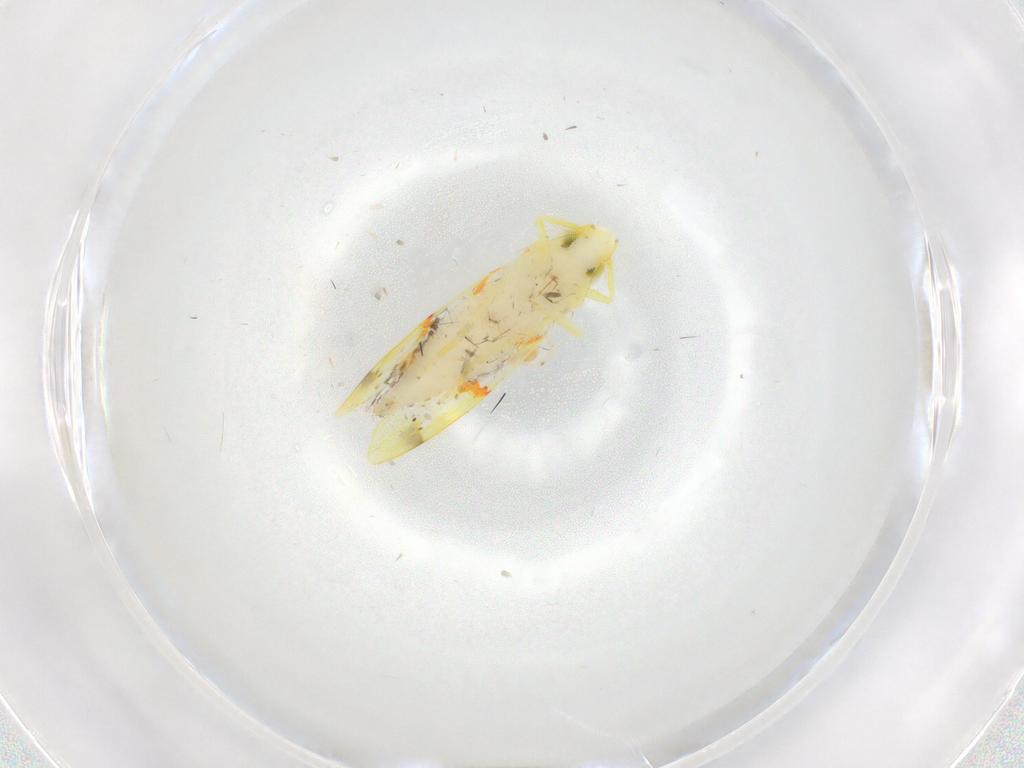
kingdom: Animalia
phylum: Arthropoda
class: Insecta
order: Hemiptera
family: Cicadellidae
